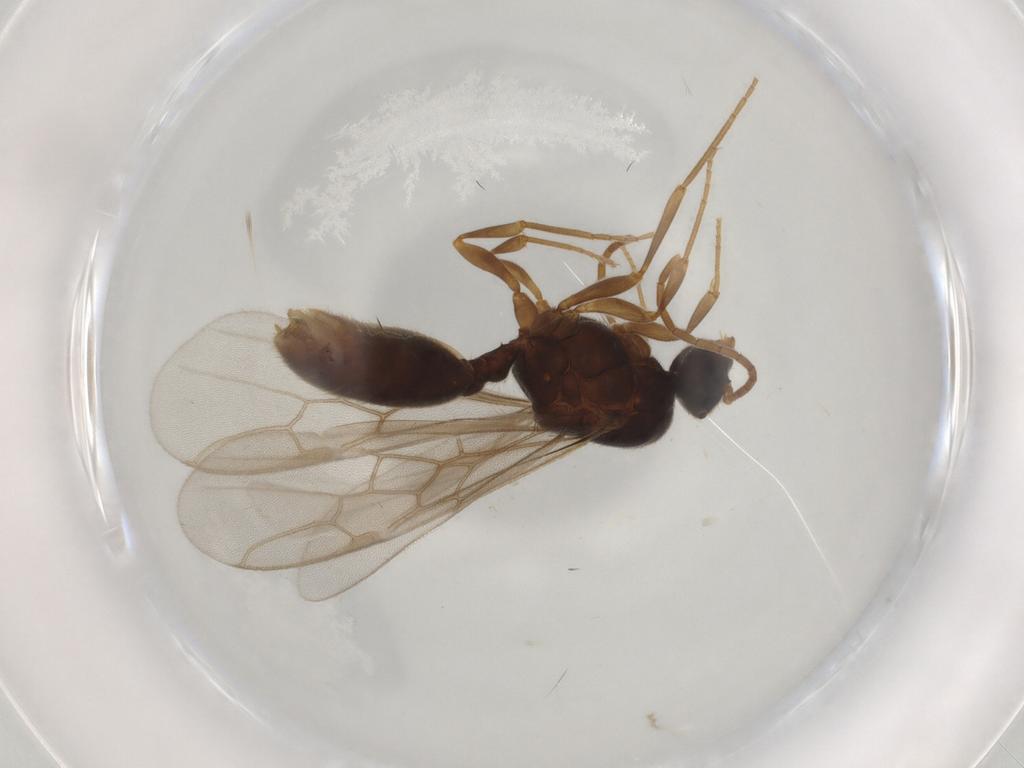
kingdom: Animalia
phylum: Arthropoda
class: Insecta
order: Hymenoptera
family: Formicidae
